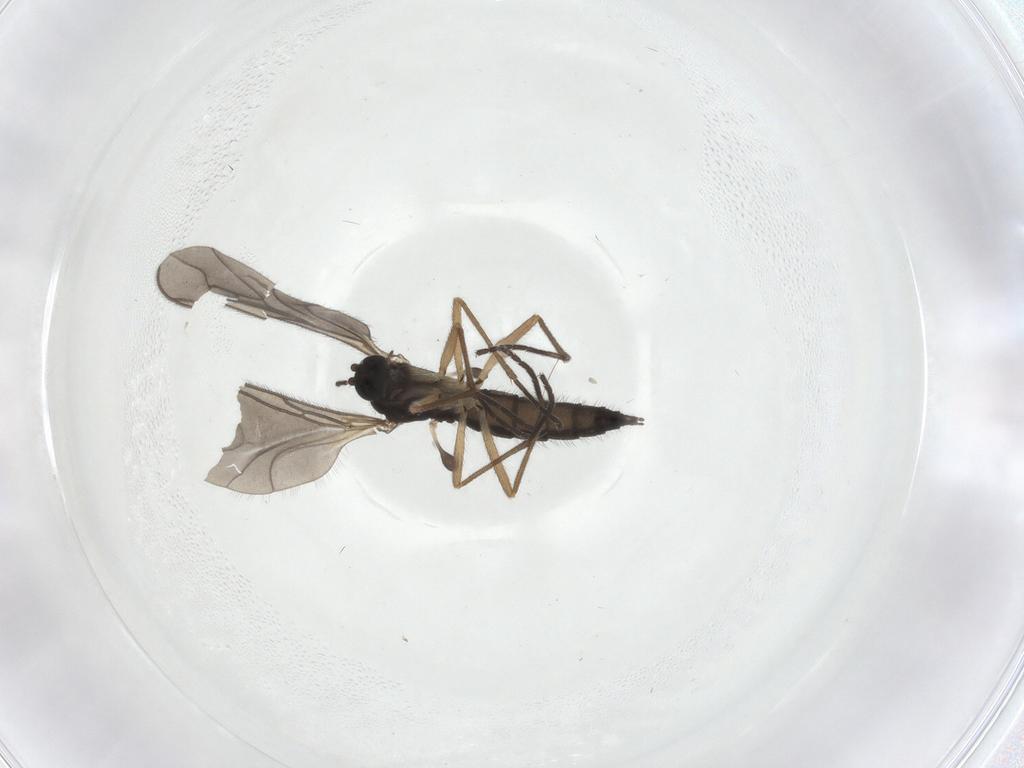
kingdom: Animalia
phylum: Arthropoda
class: Insecta
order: Diptera
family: Sciaridae
